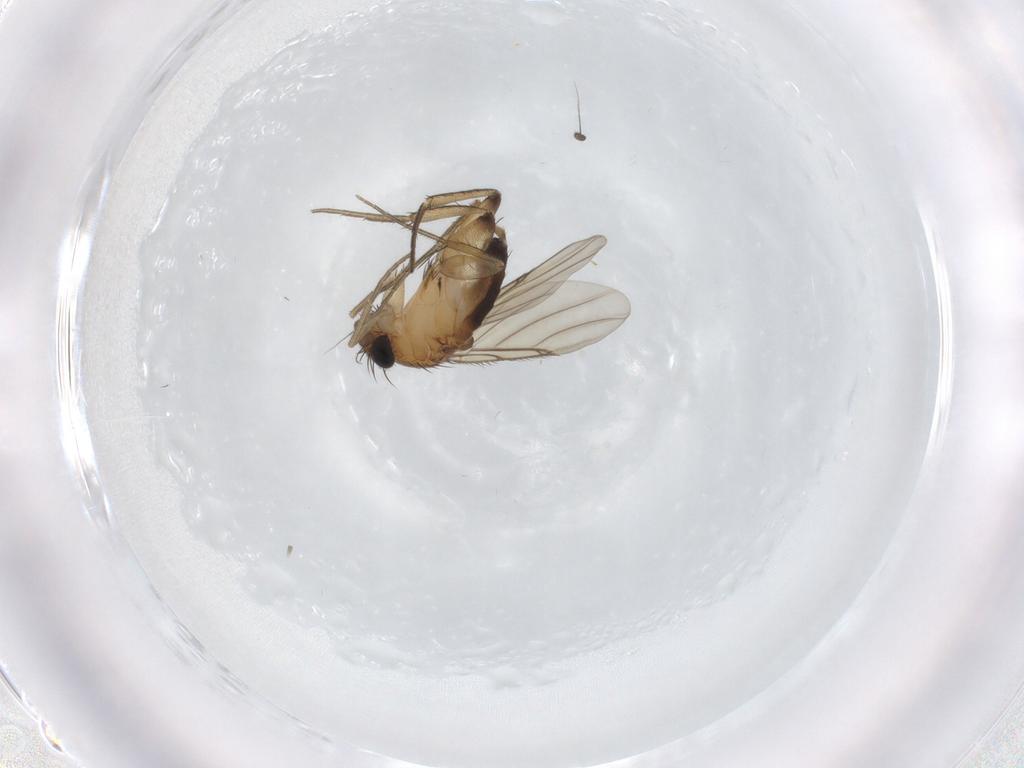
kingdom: Animalia
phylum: Arthropoda
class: Insecta
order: Diptera
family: Phoridae
